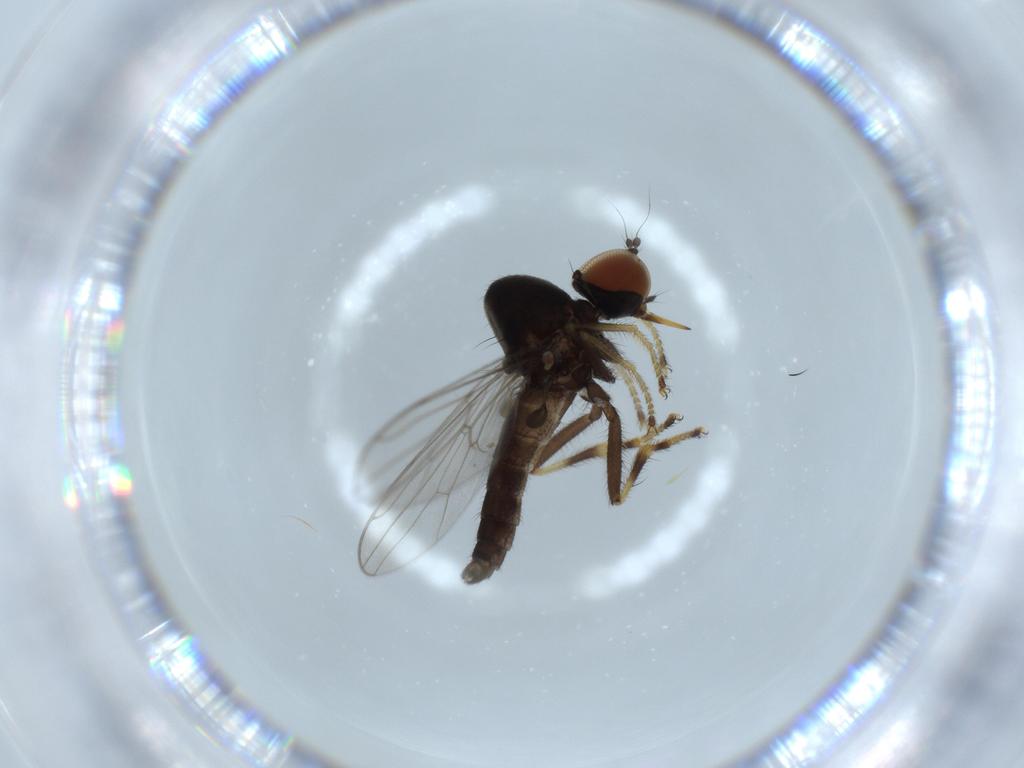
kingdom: Animalia
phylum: Arthropoda
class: Insecta
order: Diptera
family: Hybotidae
